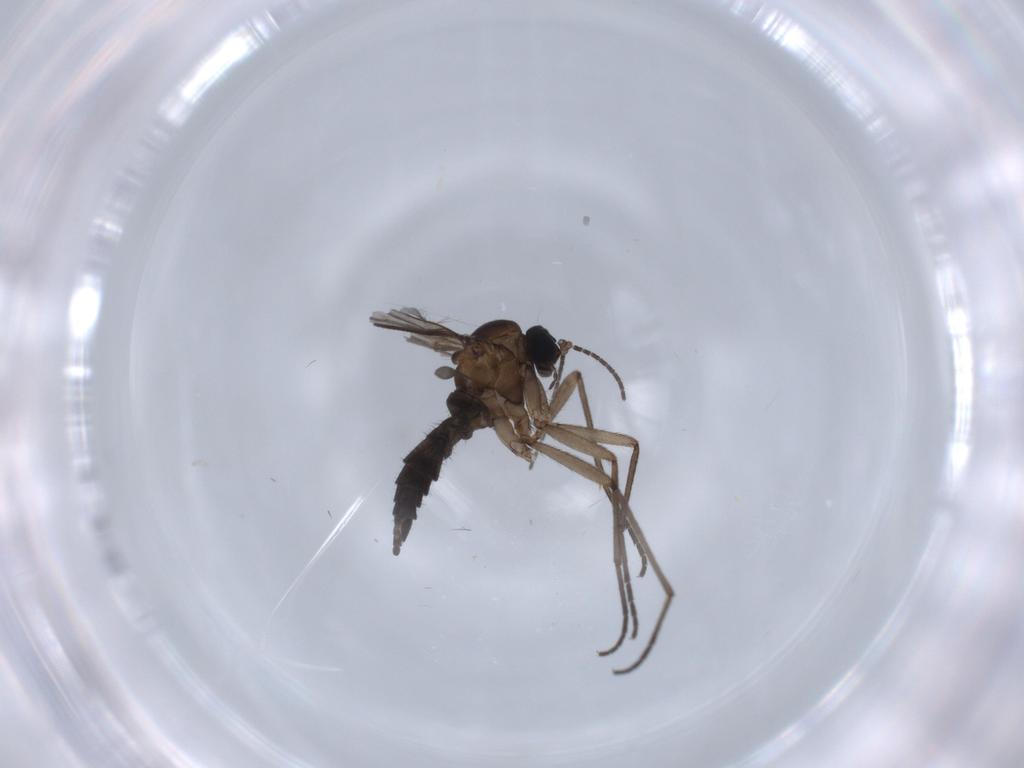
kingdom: Animalia
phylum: Arthropoda
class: Insecta
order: Diptera
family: Sciaridae
